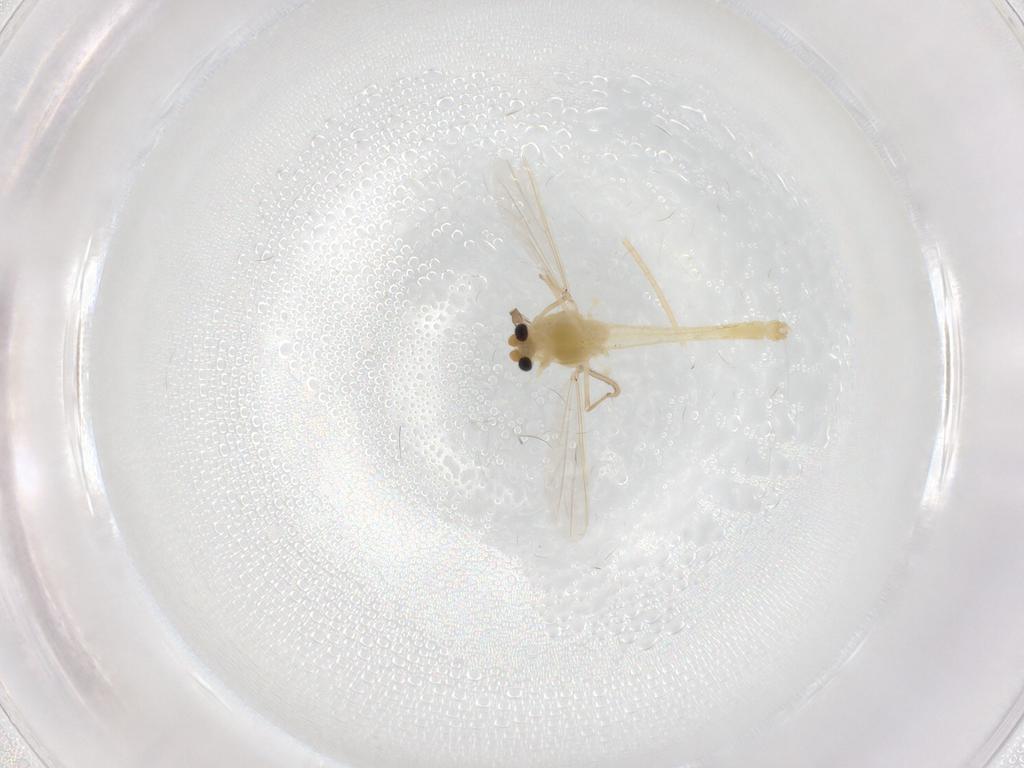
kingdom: Animalia
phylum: Arthropoda
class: Insecta
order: Diptera
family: Chironomidae
